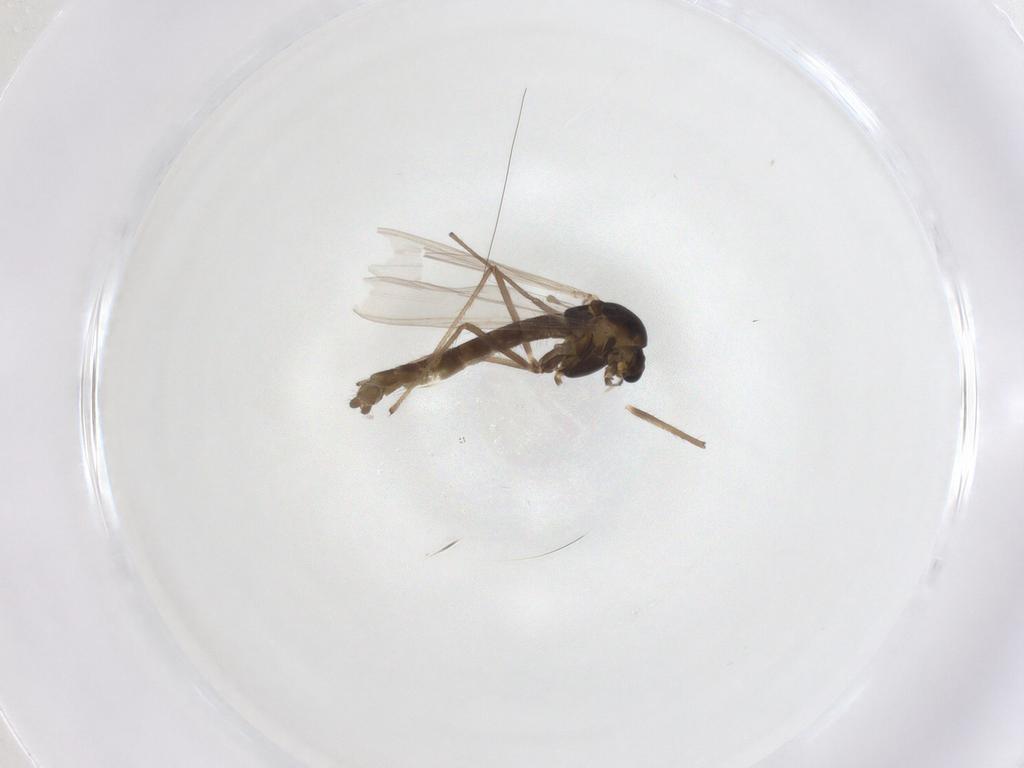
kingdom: Animalia
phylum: Arthropoda
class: Insecta
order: Diptera
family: Chironomidae
